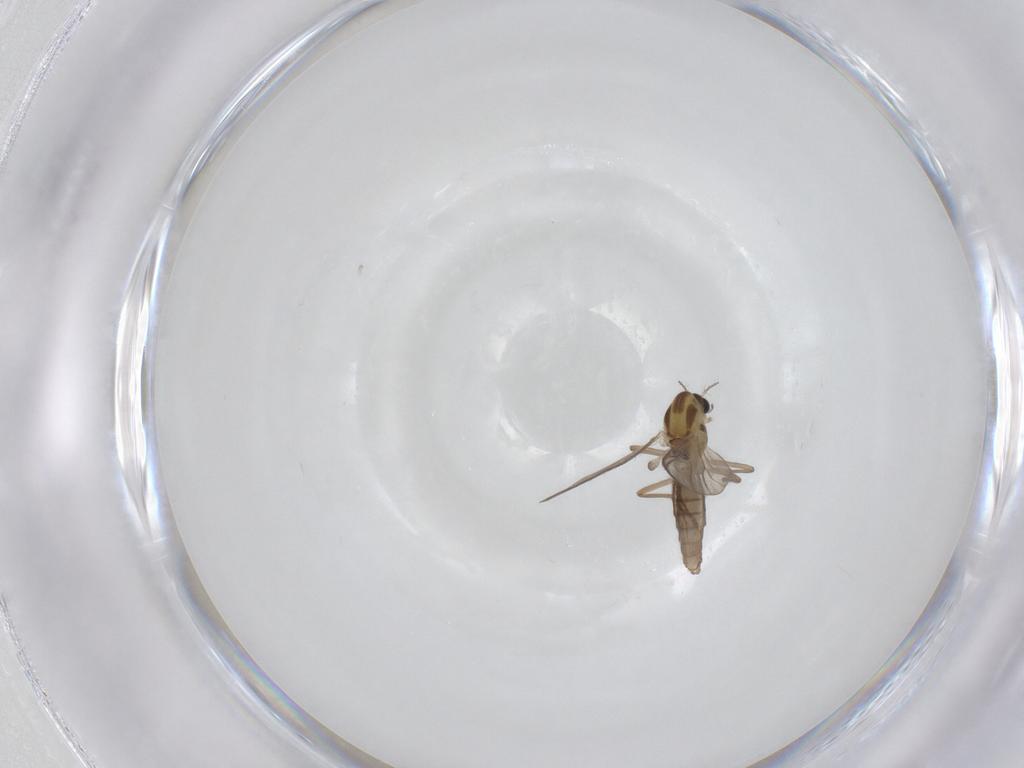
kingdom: Animalia
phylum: Arthropoda
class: Insecta
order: Diptera
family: Chironomidae
